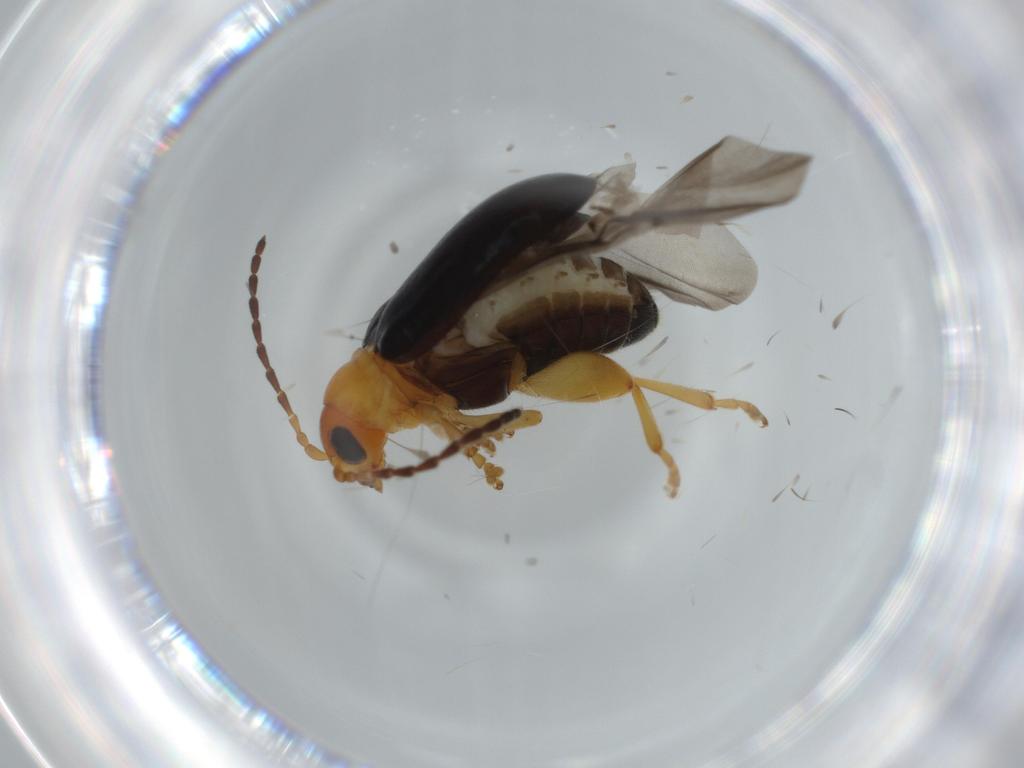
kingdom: Animalia
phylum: Arthropoda
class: Insecta
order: Coleoptera
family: Chrysomelidae
